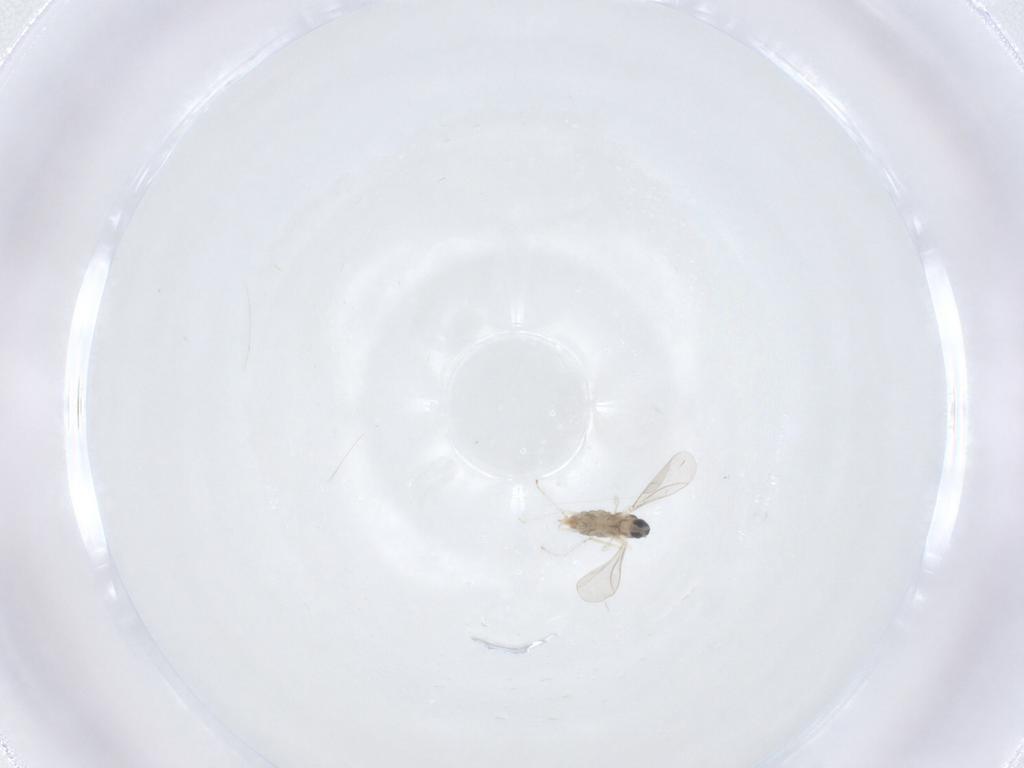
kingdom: Animalia
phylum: Arthropoda
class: Insecta
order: Diptera
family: Cecidomyiidae
